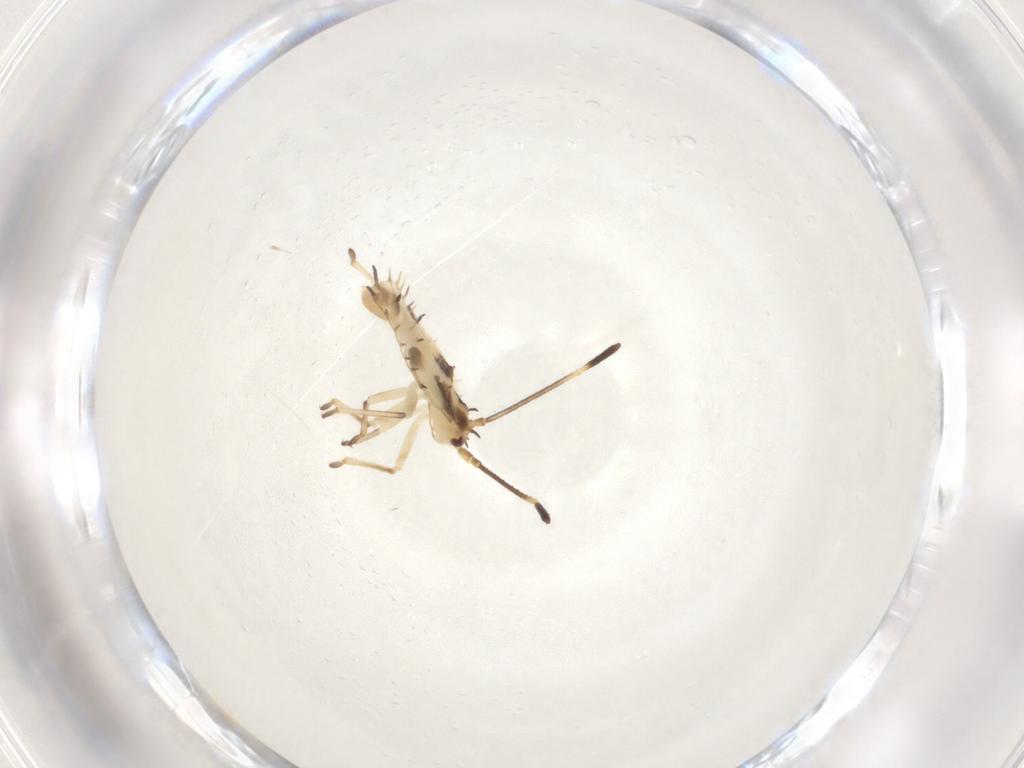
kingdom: Animalia
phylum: Arthropoda
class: Insecta
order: Hemiptera
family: Tingidae
